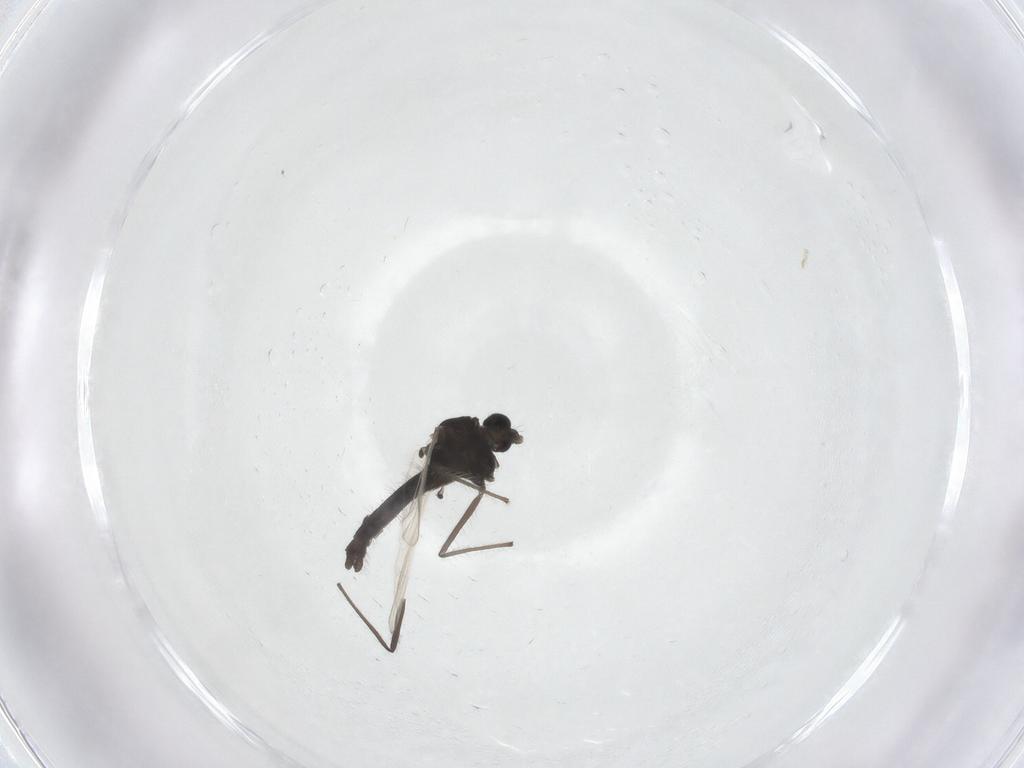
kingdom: Animalia
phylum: Arthropoda
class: Insecta
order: Diptera
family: Chironomidae
